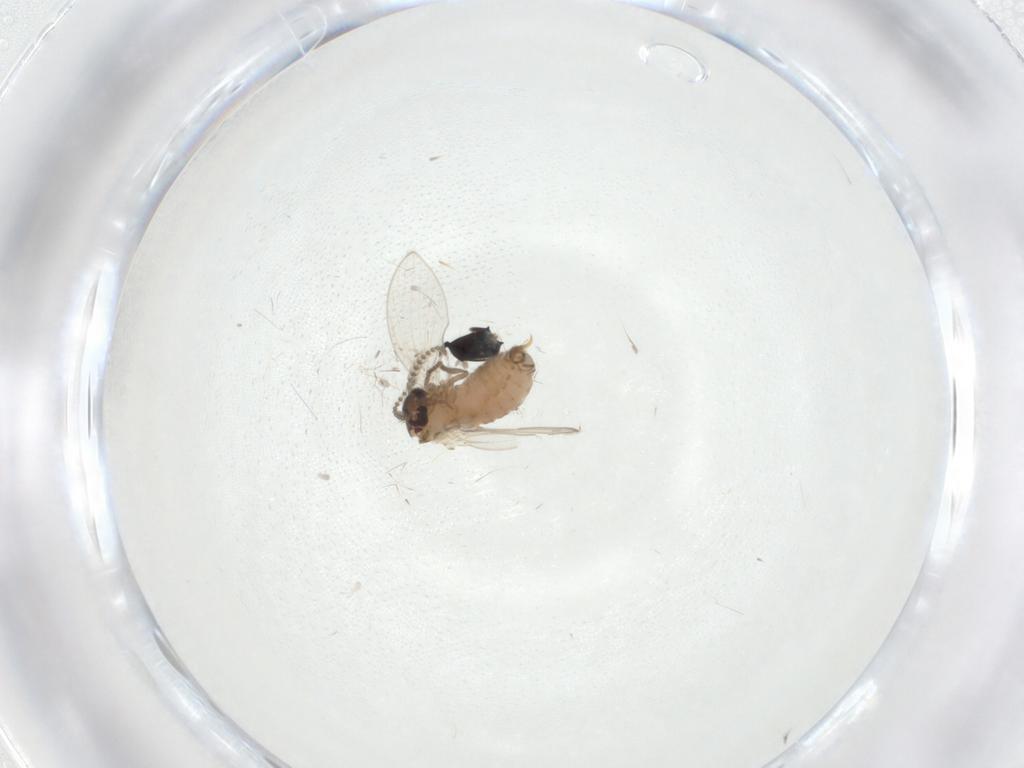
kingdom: Animalia
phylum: Arthropoda
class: Insecta
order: Diptera
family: Psychodidae
